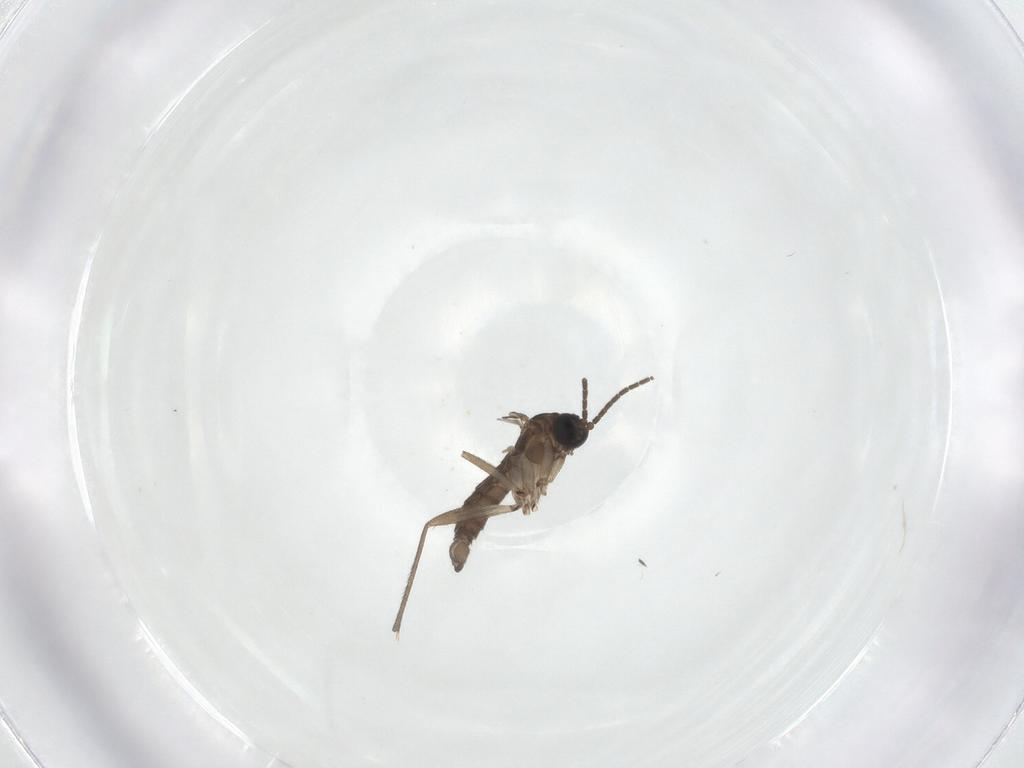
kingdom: Animalia
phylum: Arthropoda
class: Insecta
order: Diptera
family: Sciaridae
